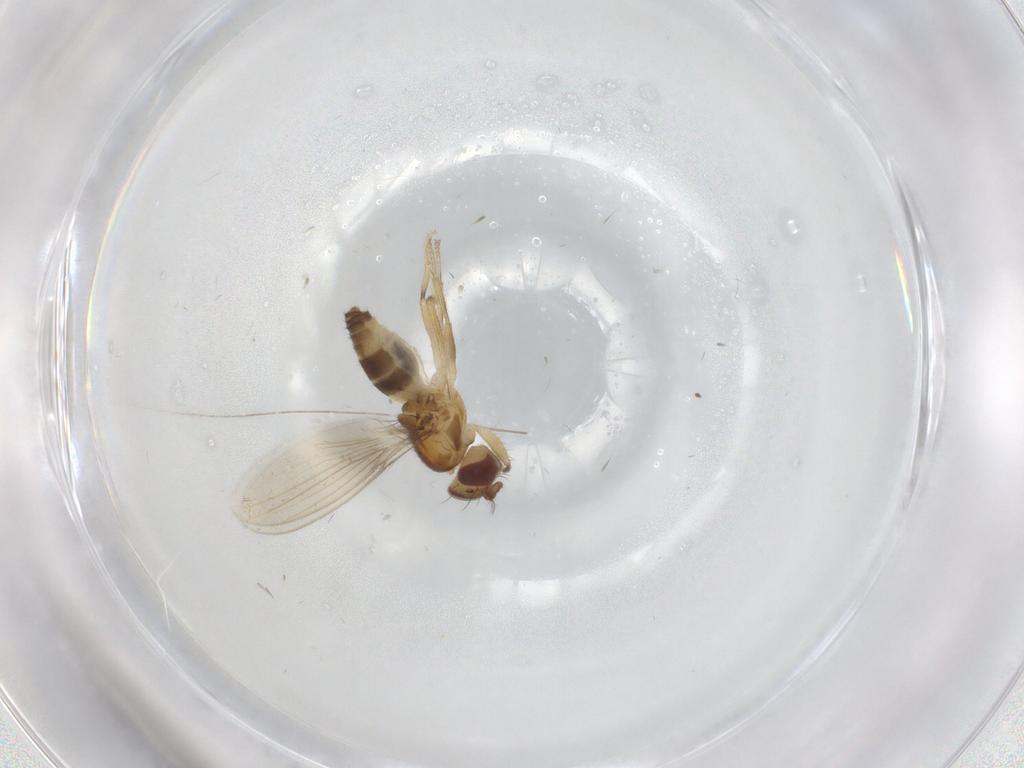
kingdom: Animalia
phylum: Arthropoda
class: Insecta
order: Diptera
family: Periscelididae
